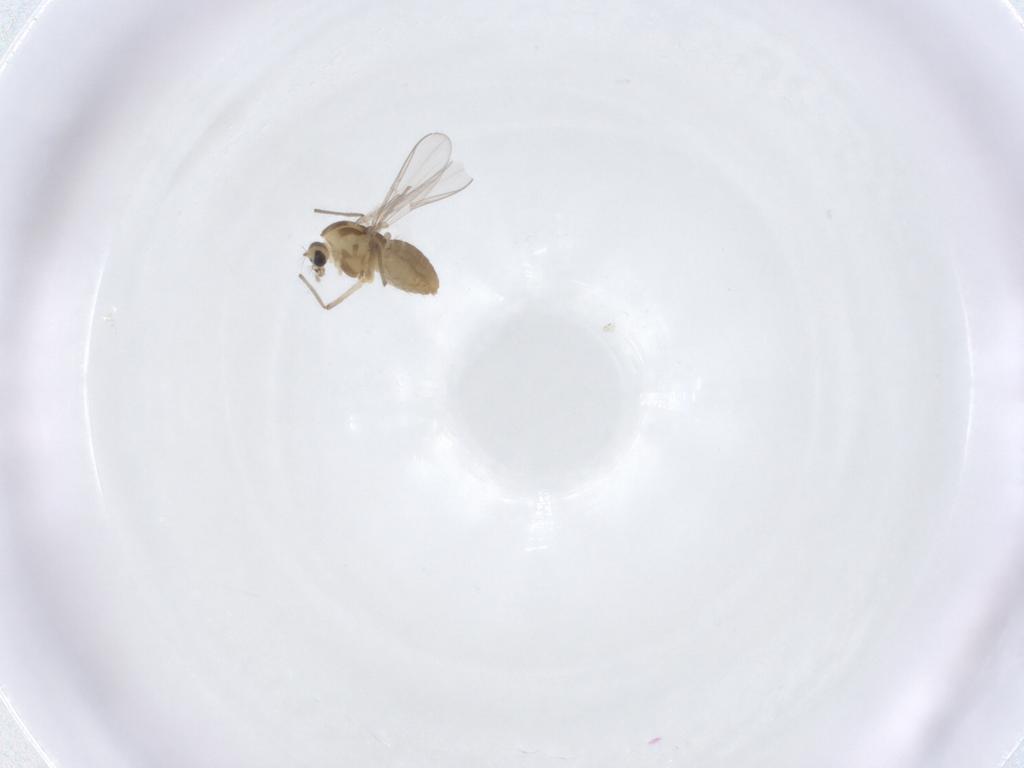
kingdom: Animalia
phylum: Arthropoda
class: Insecta
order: Diptera
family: Chironomidae
